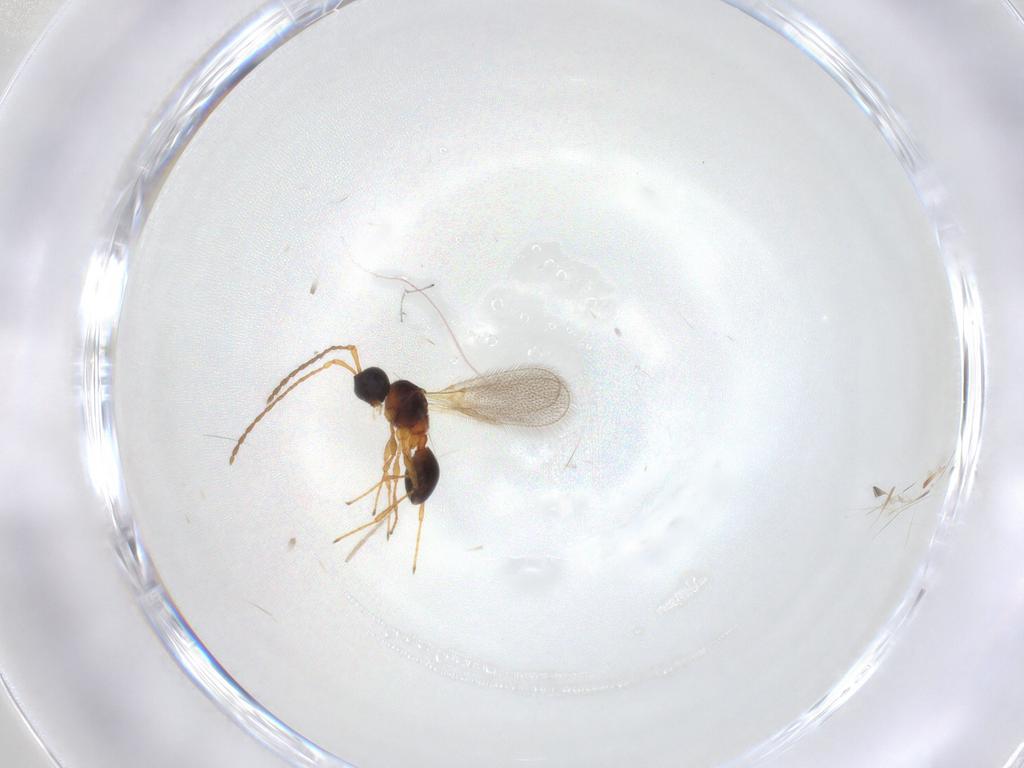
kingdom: Animalia
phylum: Arthropoda
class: Insecta
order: Hymenoptera
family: Diapriidae
